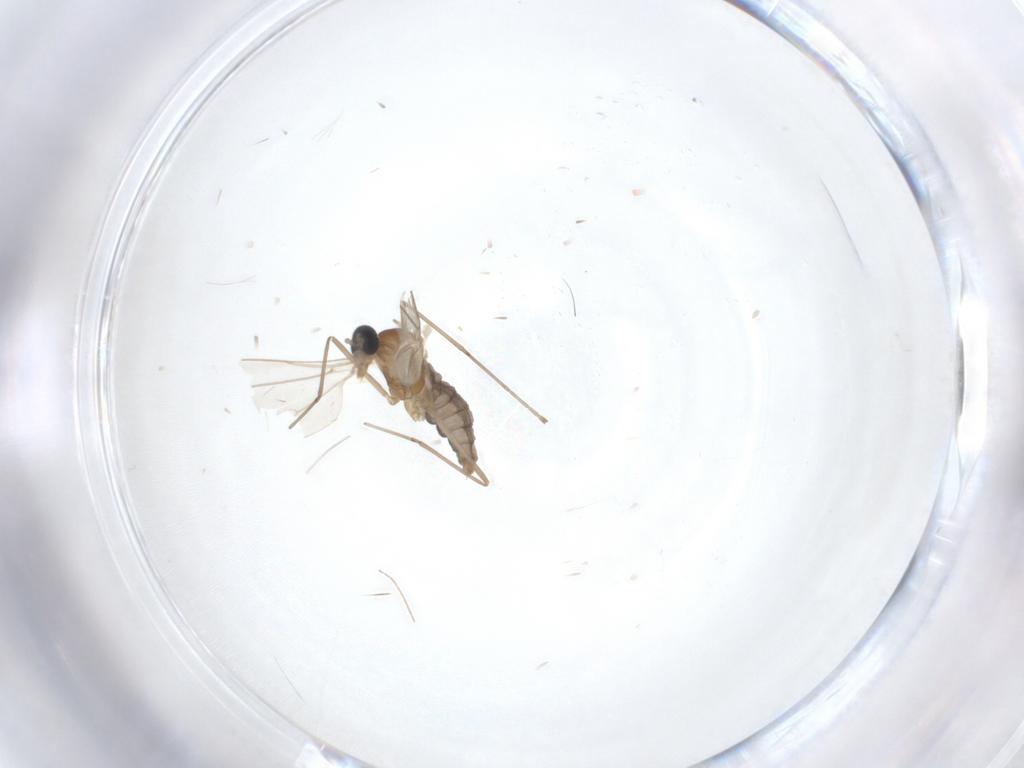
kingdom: Animalia
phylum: Arthropoda
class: Insecta
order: Diptera
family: Cecidomyiidae
